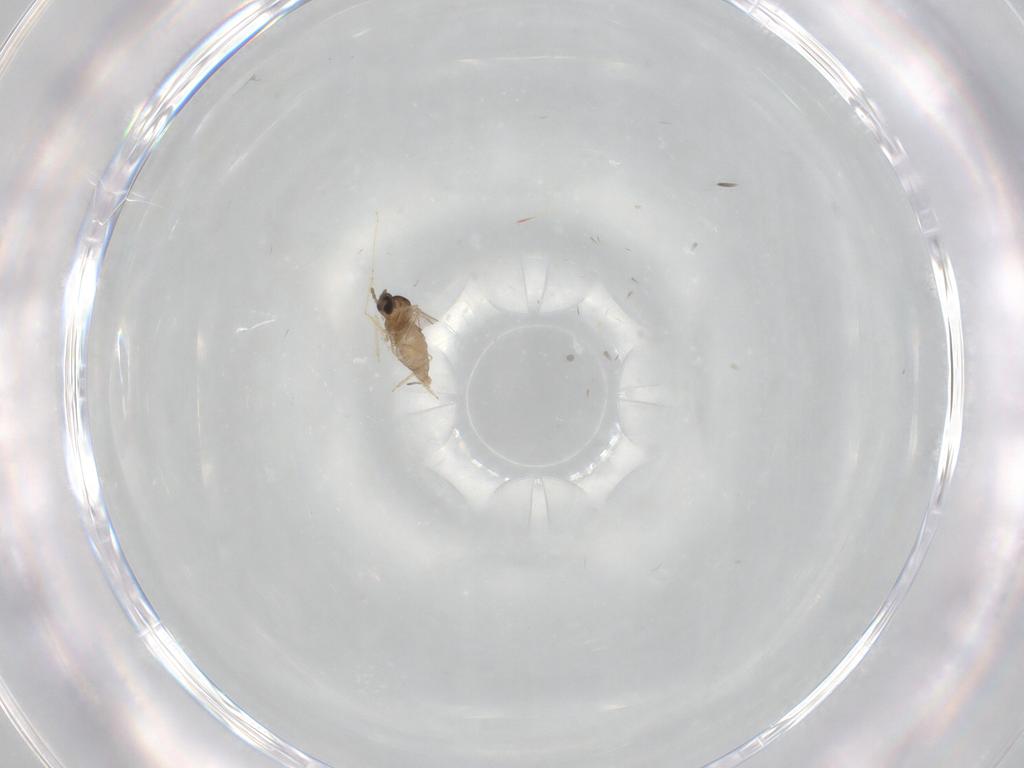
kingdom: Animalia
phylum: Arthropoda
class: Insecta
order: Diptera
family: Cecidomyiidae
